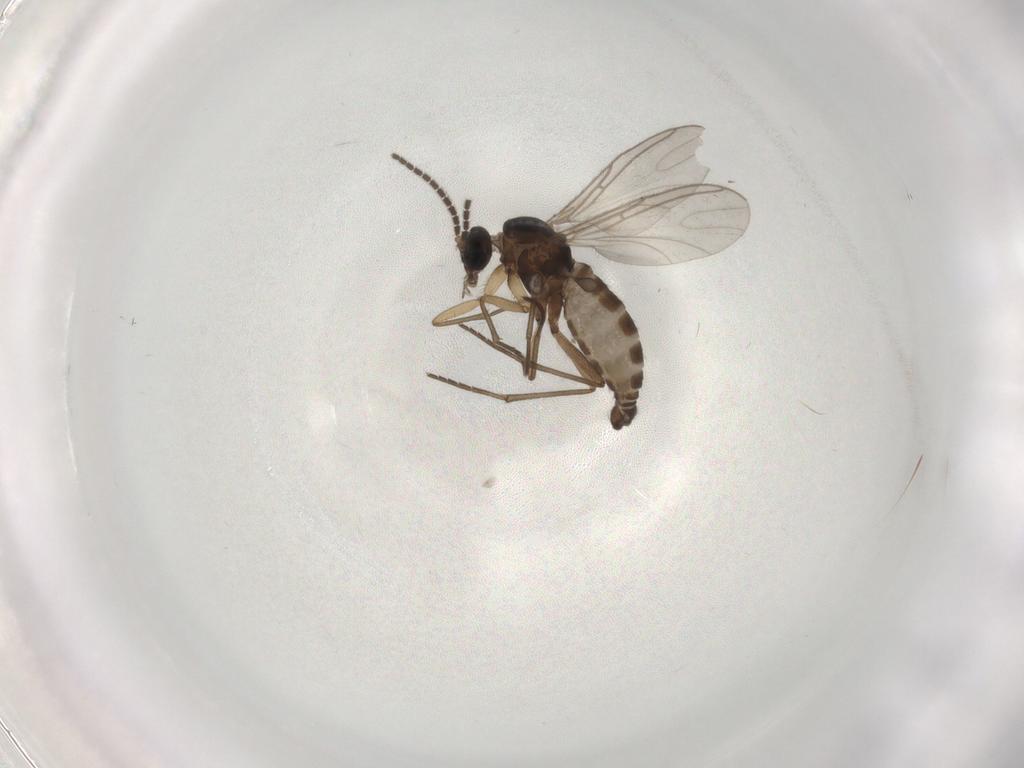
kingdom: Animalia
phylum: Arthropoda
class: Insecta
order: Diptera
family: Sciaridae
